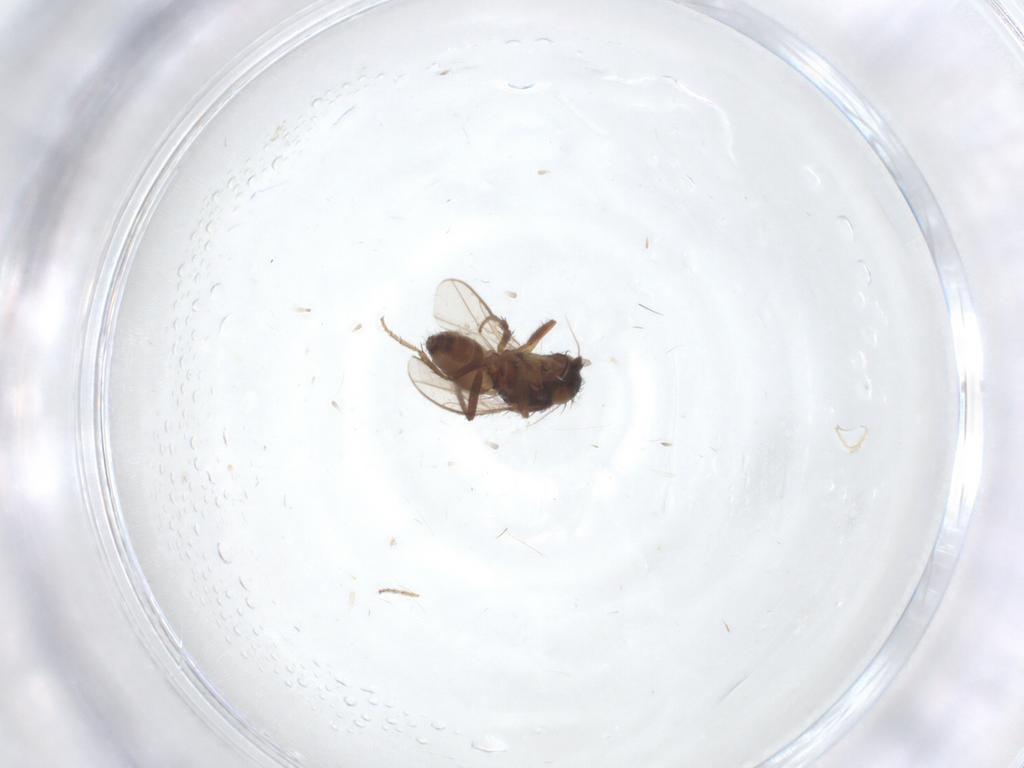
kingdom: Animalia
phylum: Arthropoda
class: Insecta
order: Diptera
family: Sphaeroceridae
